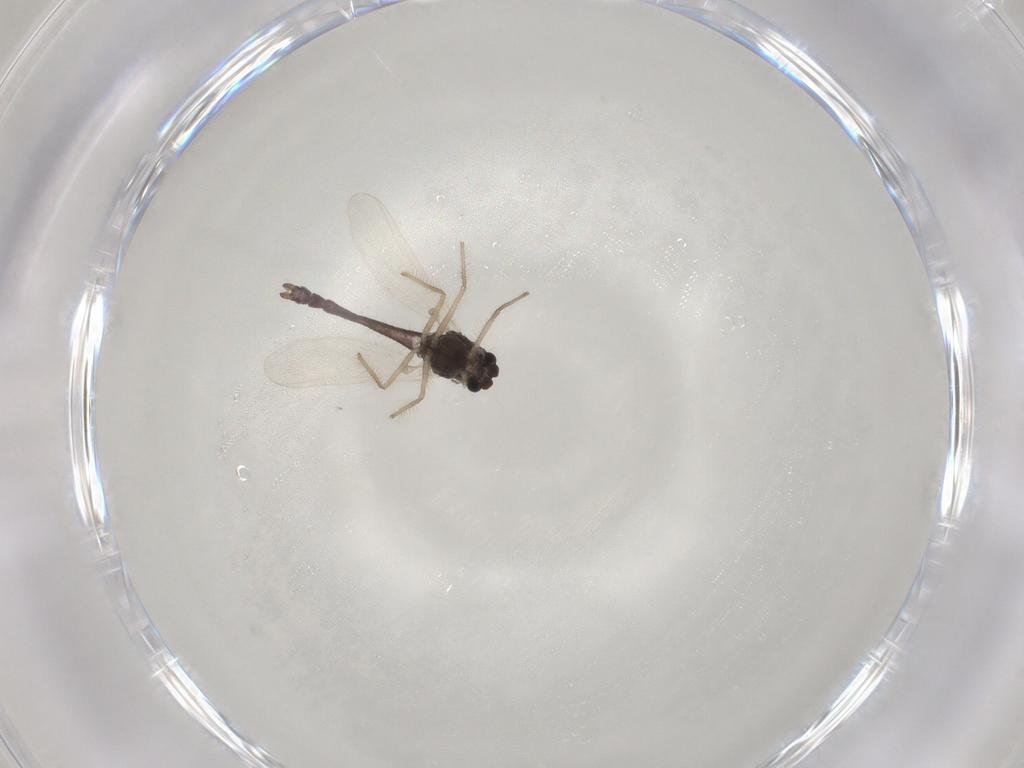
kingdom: Animalia
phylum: Arthropoda
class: Insecta
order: Diptera
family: Chironomidae
